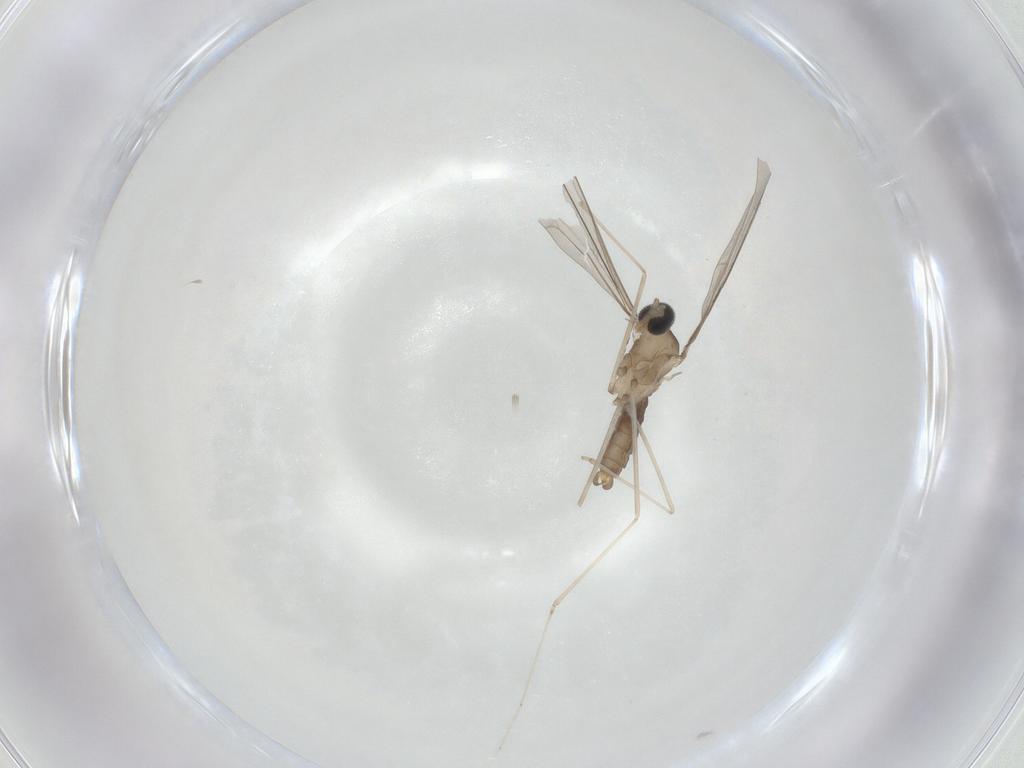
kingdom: Animalia
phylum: Arthropoda
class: Insecta
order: Diptera
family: Cecidomyiidae
